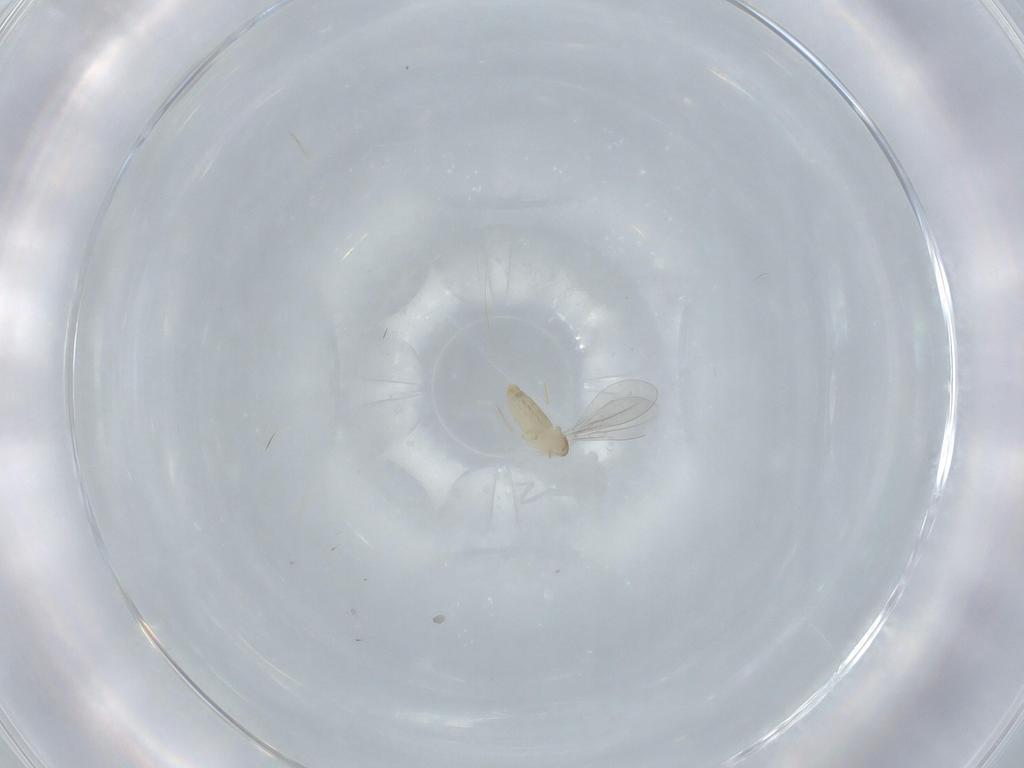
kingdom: Animalia
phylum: Arthropoda
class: Insecta
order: Diptera
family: Cecidomyiidae
